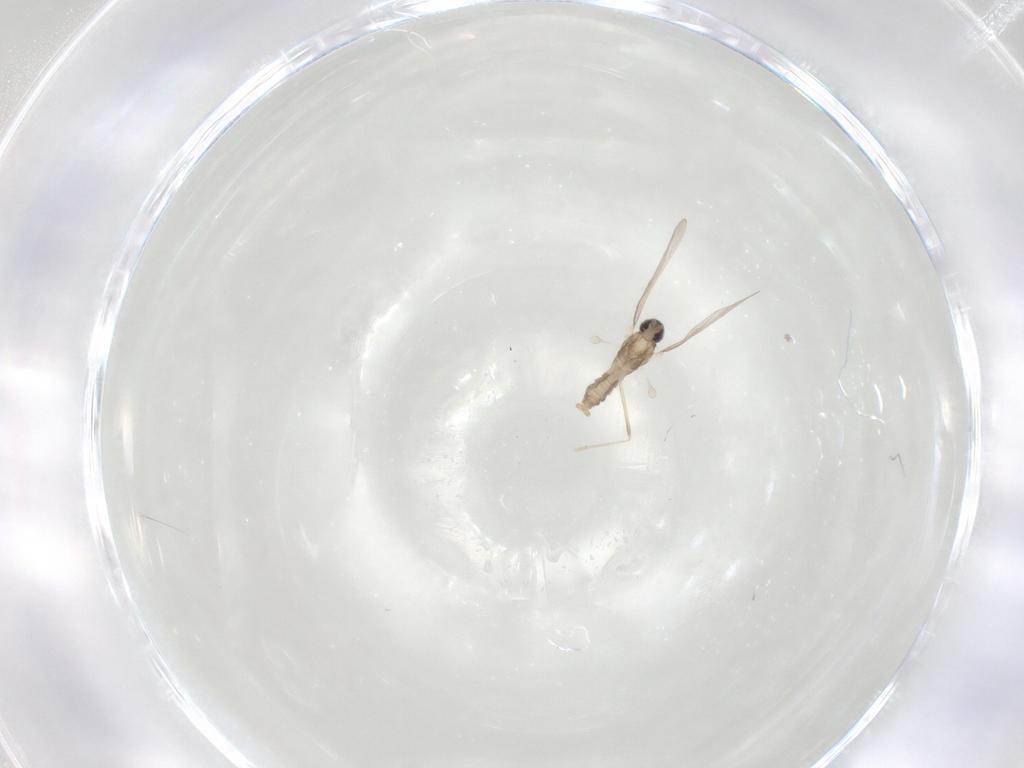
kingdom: Animalia
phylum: Arthropoda
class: Insecta
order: Diptera
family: Cecidomyiidae
